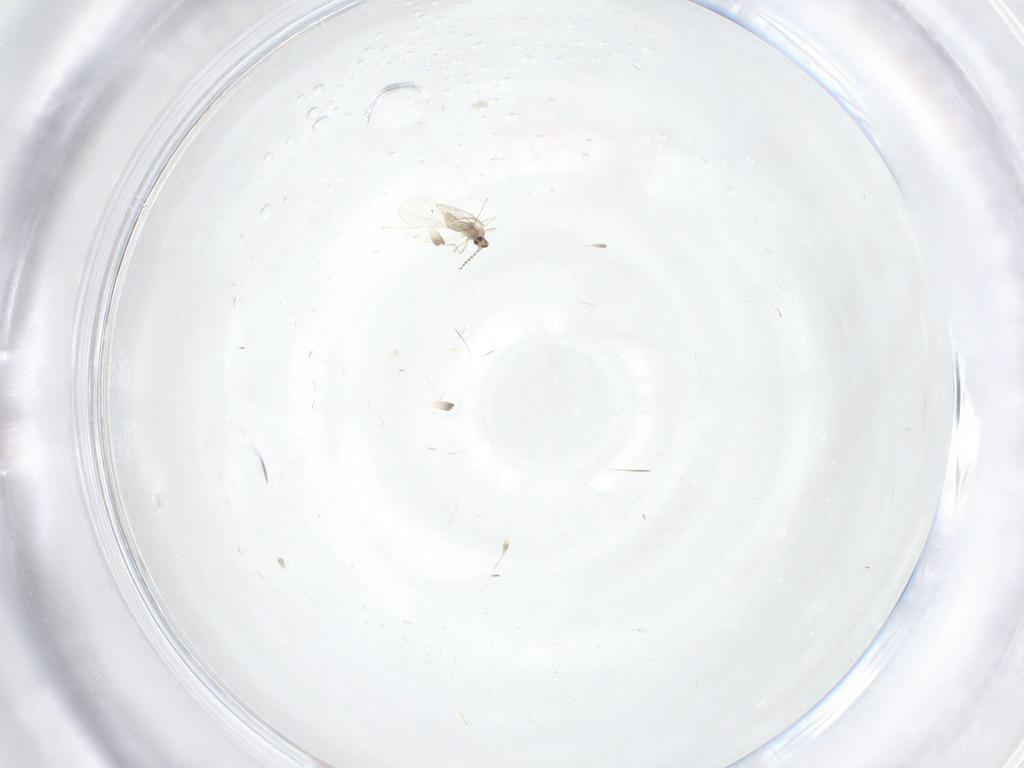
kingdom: Animalia
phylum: Arthropoda
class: Insecta
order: Diptera
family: Cecidomyiidae
